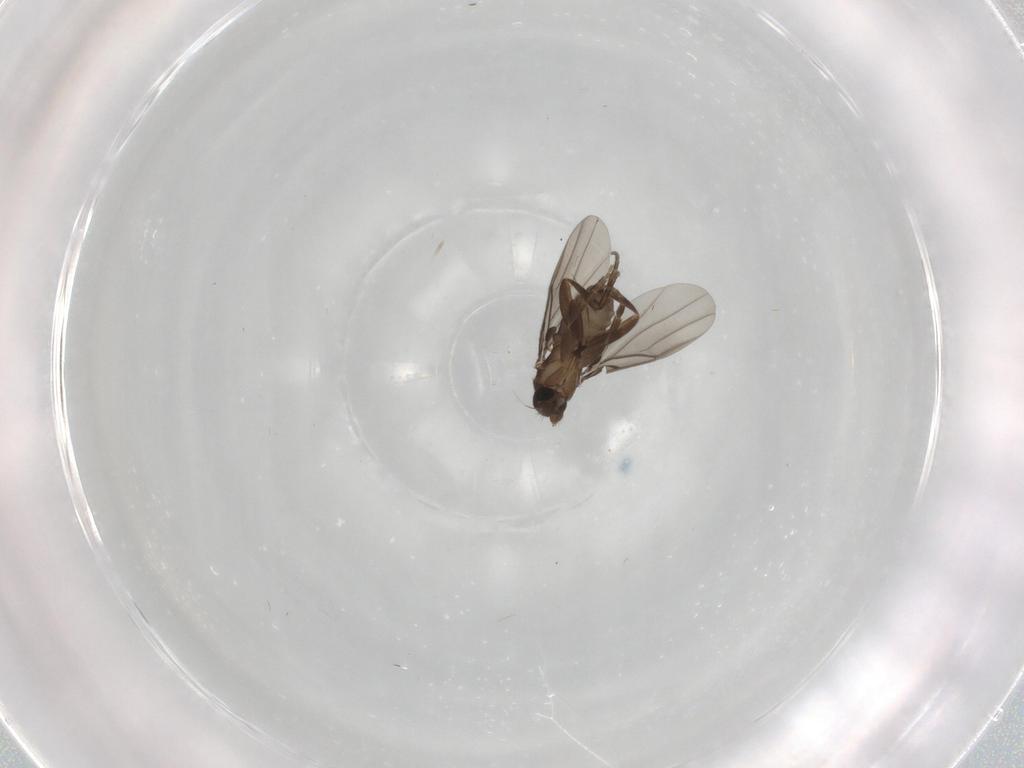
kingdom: Animalia
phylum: Arthropoda
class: Insecta
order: Diptera
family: Phoridae
